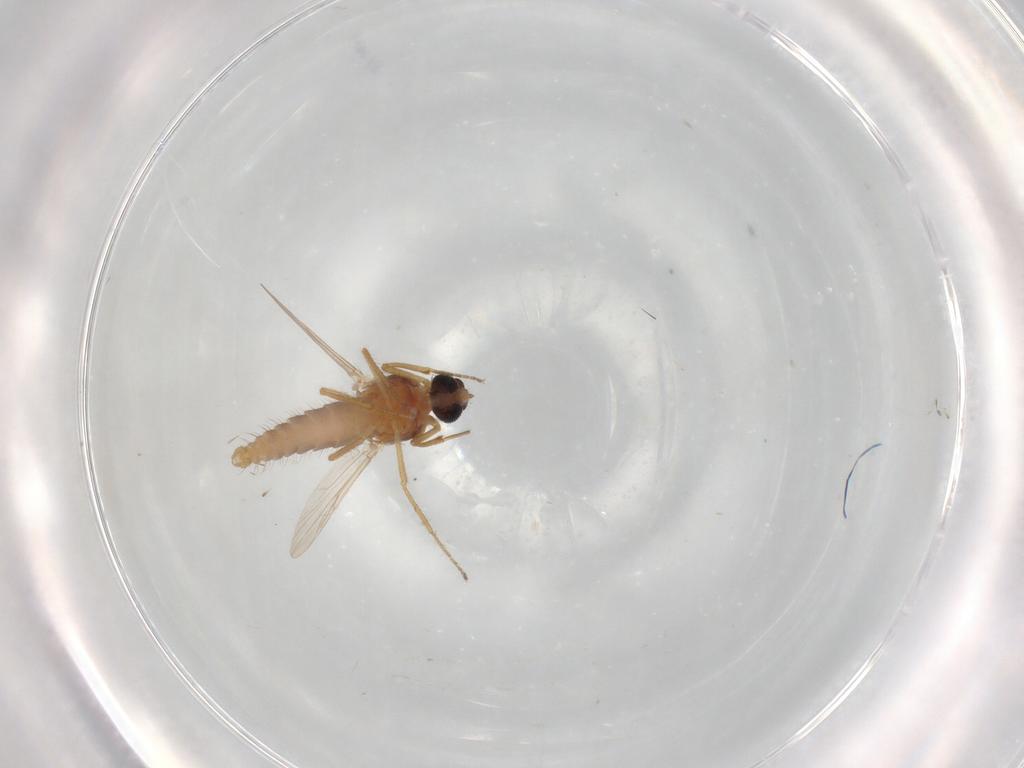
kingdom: Animalia
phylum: Arthropoda
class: Insecta
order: Diptera
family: Ceratopogonidae
